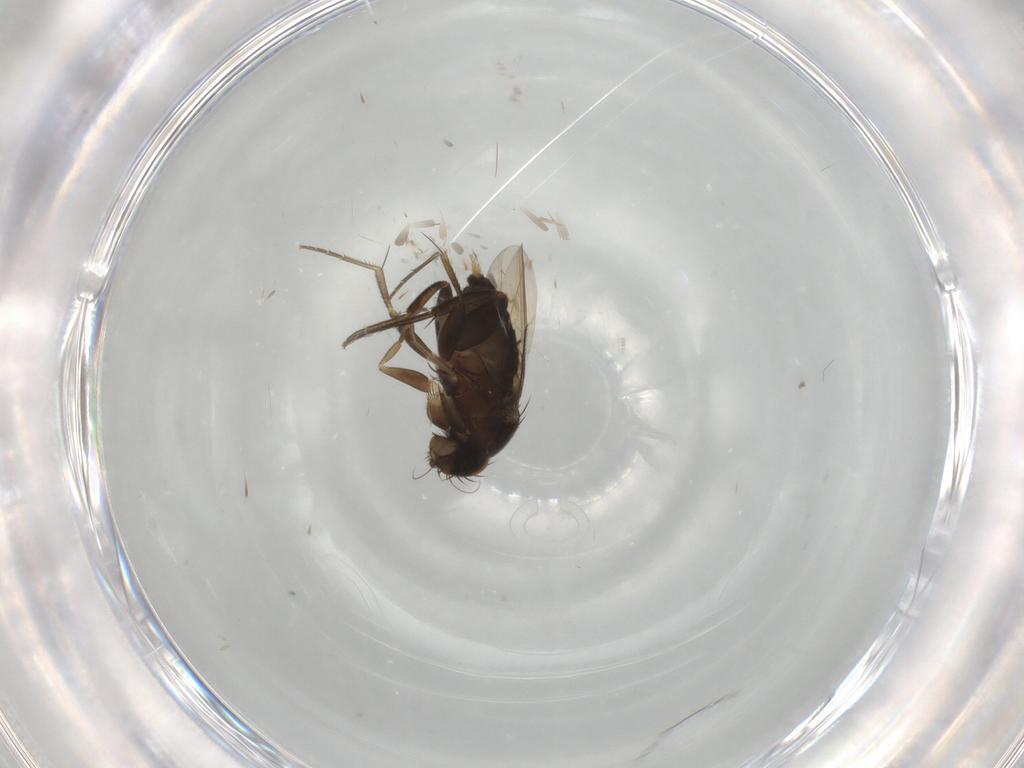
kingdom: Animalia
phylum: Arthropoda
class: Insecta
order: Diptera
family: Phoridae
